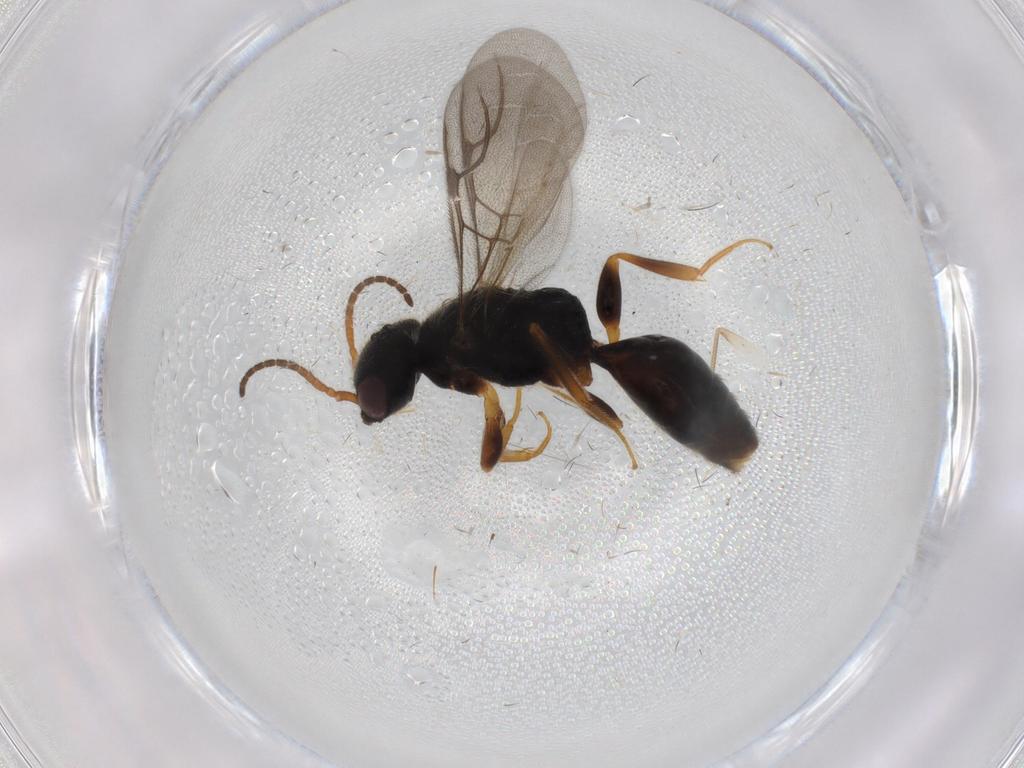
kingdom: Animalia
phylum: Arthropoda
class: Insecta
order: Hymenoptera
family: Bethylidae
